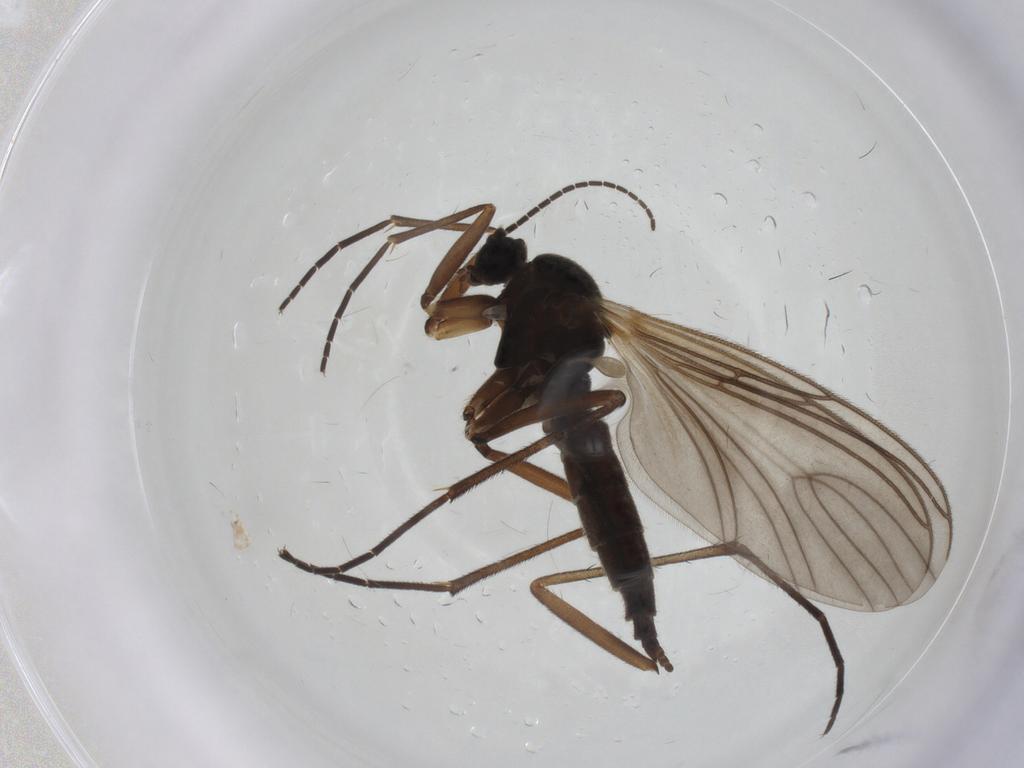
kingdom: Animalia
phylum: Arthropoda
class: Insecta
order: Diptera
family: Sciaridae
